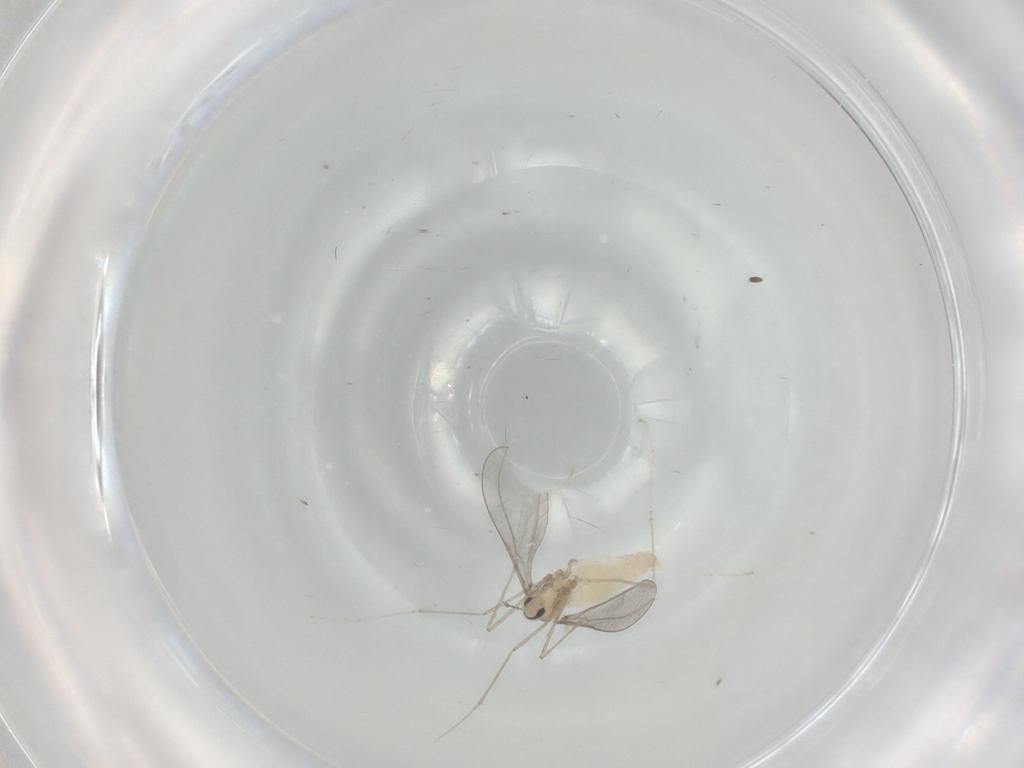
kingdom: Animalia
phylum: Arthropoda
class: Insecta
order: Diptera
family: Cecidomyiidae
